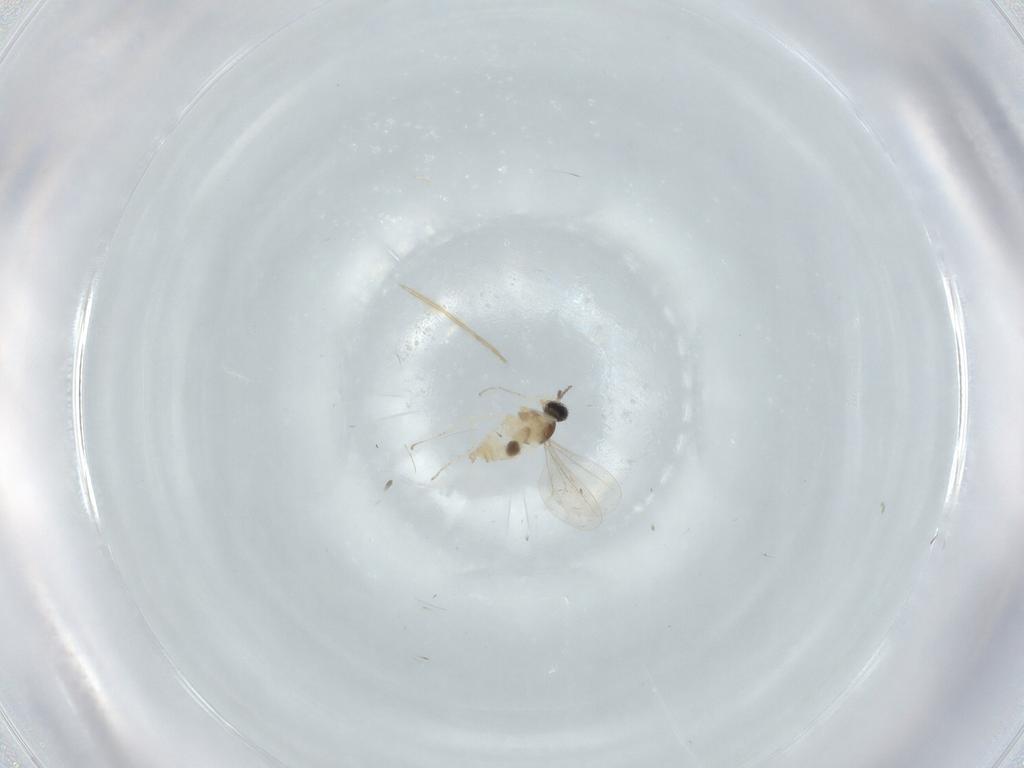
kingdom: Animalia
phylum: Arthropoda
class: Insecta
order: Diptera
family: Cecidomyiidae
